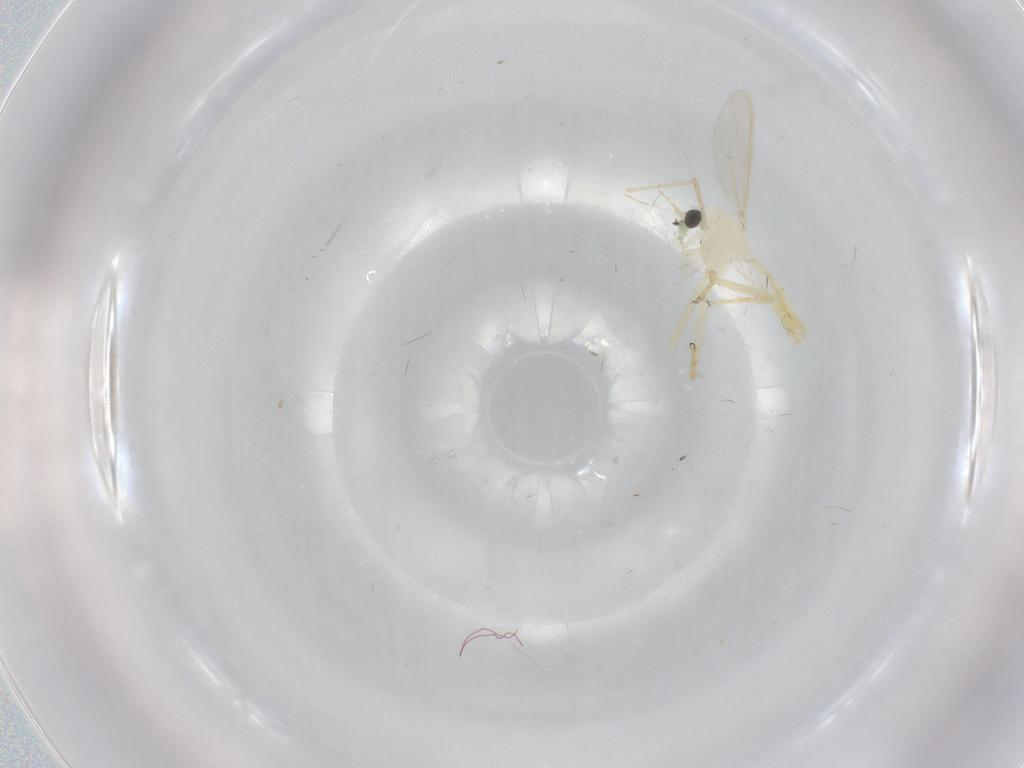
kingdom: Animalia
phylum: Arthropoda
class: Insecta
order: Diptera
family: Chironomidae
